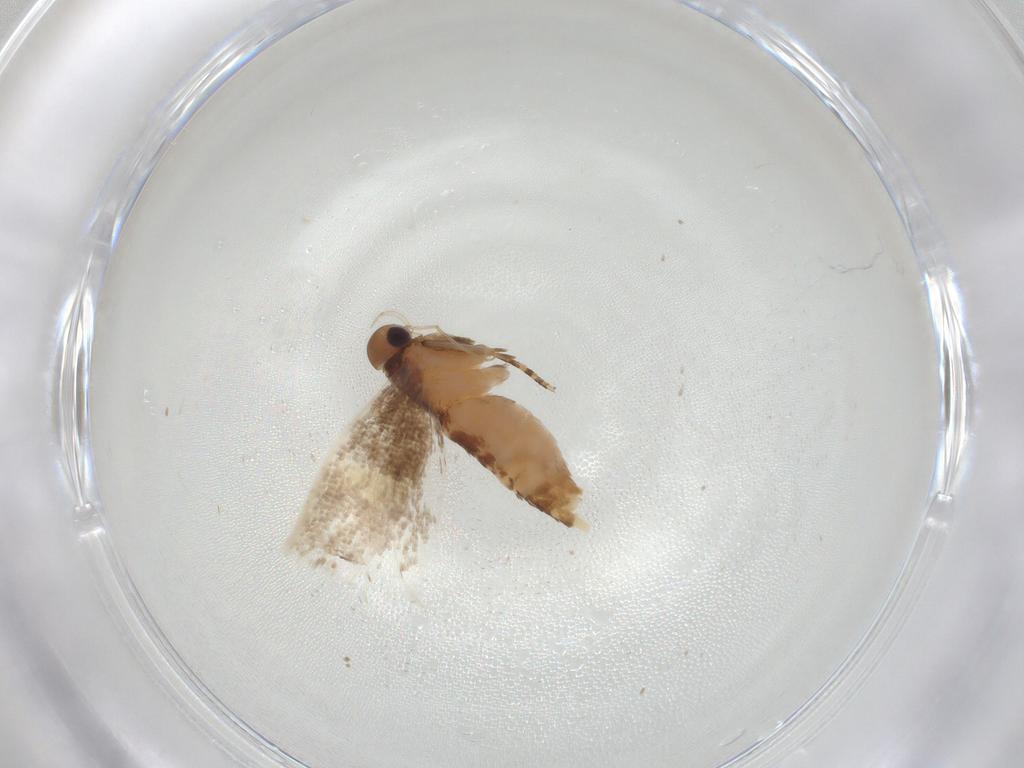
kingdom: Animalia
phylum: Arthropoda
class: Insecta
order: Lepidoptera
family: Oecophoridae
